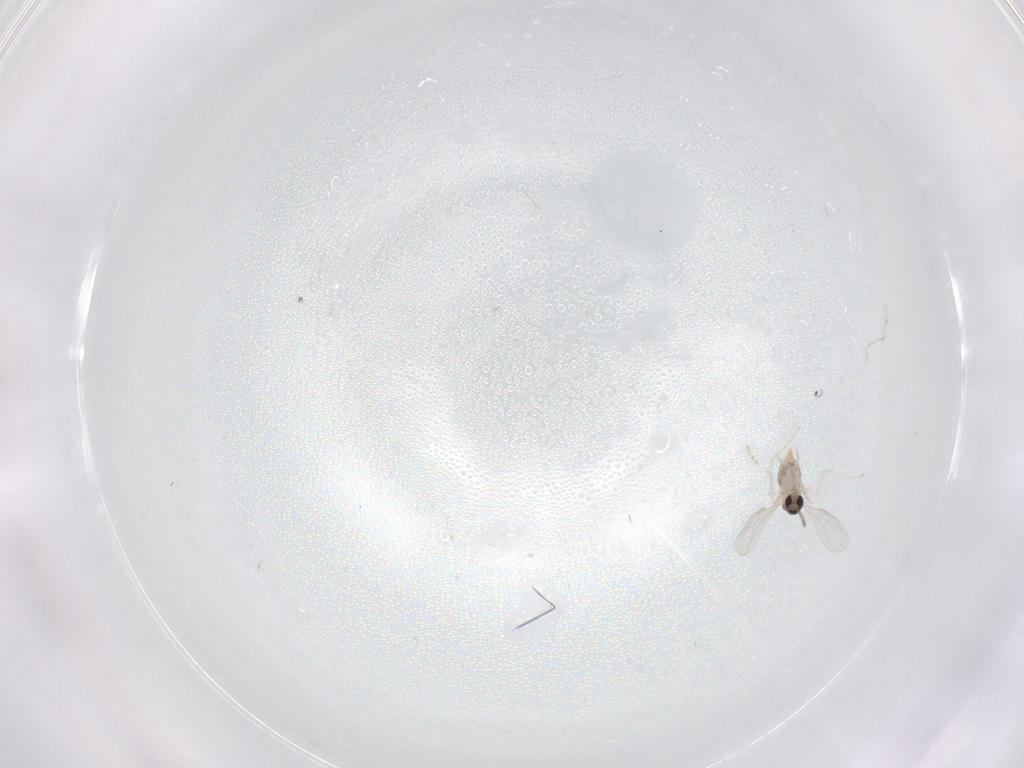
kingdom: Animalia
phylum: Arthropoda
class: Insecta
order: Diptera
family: Cecidomyiidae
